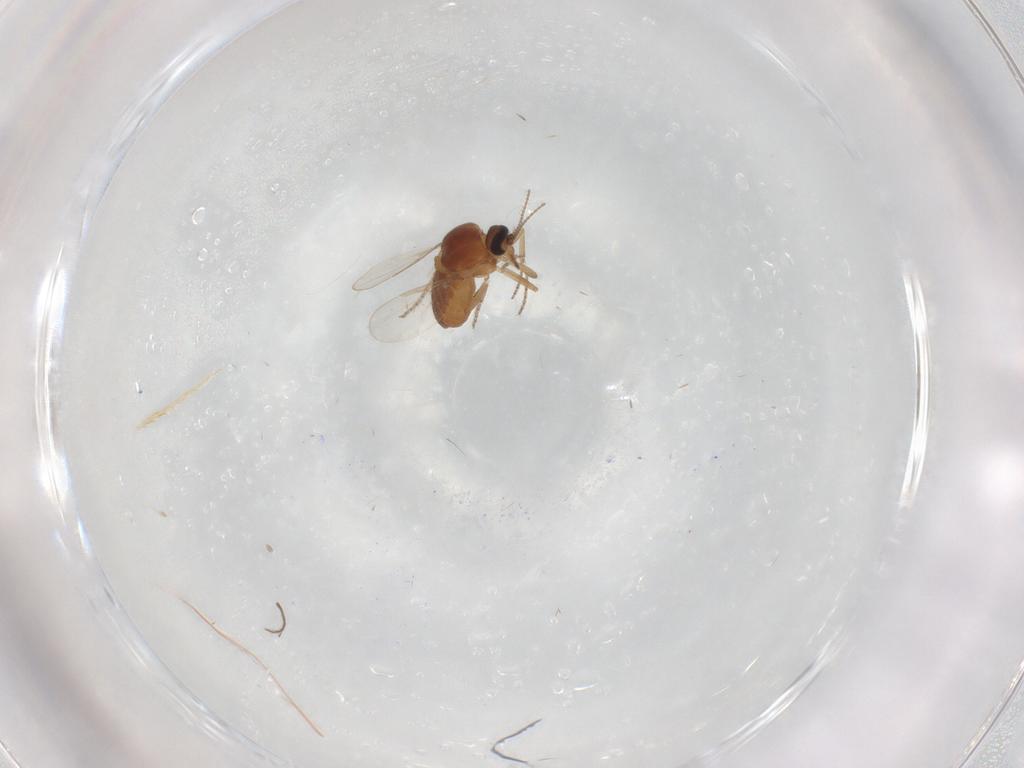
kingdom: Animalia
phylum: Arthropoda
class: Insecta
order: Diptera
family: Ceratopogonidae
